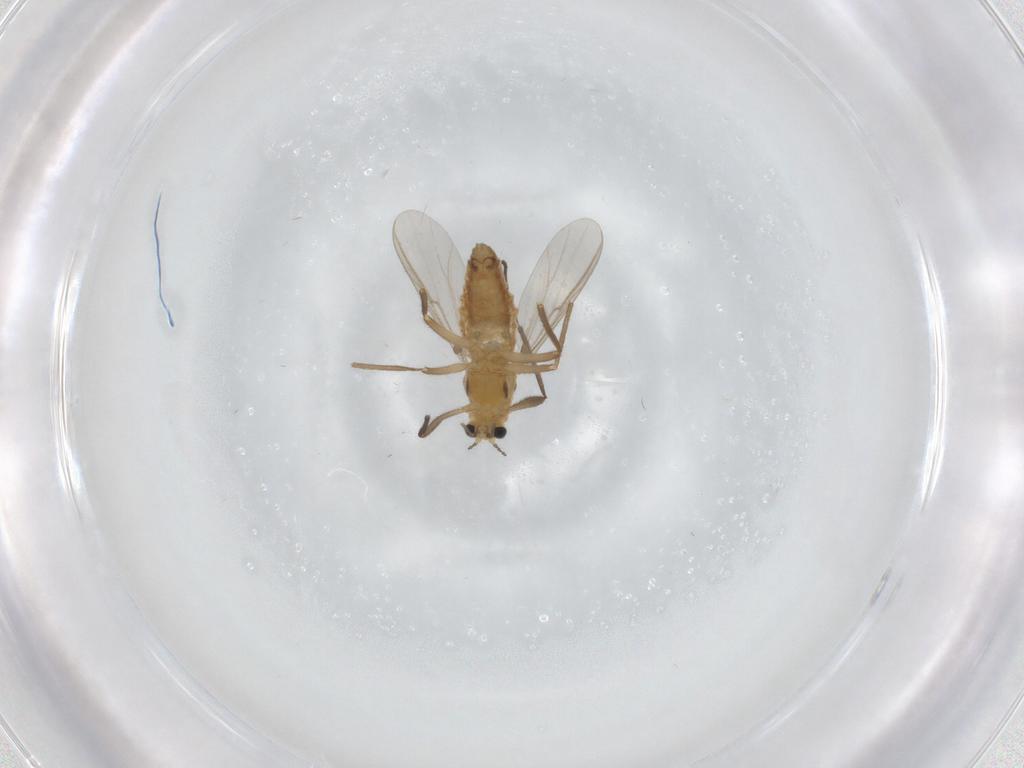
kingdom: Animalia
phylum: Arthropoda
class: Insecta
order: Diptera
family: Chironomidae
